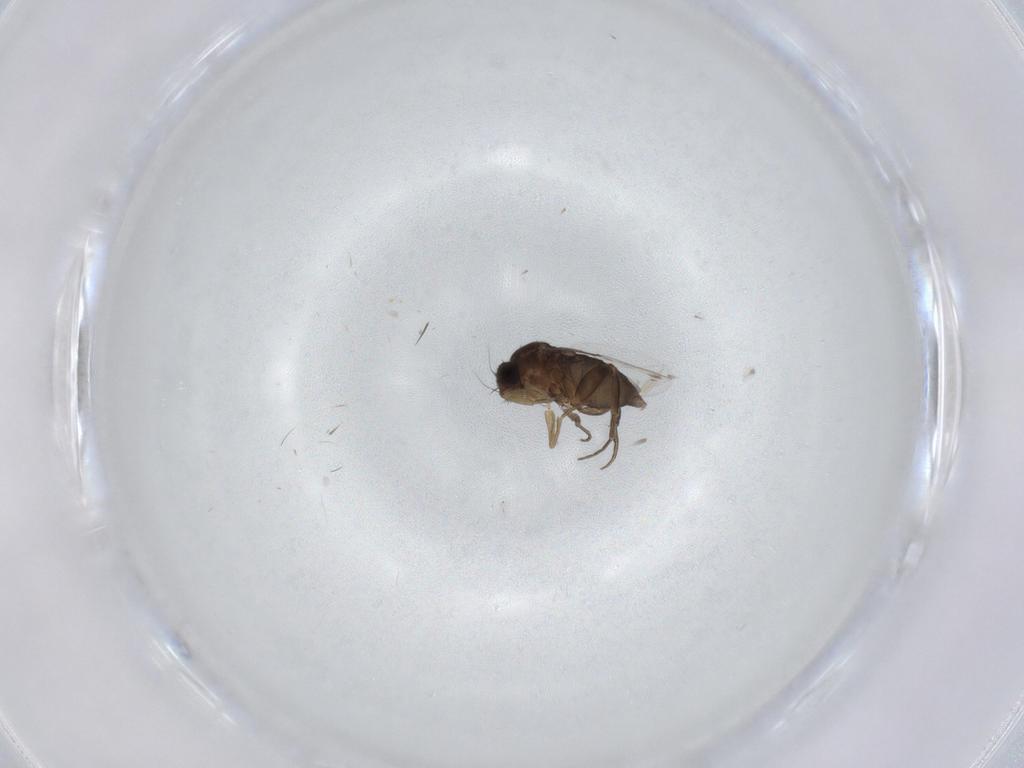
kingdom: Animalia
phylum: Arthropoda
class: Insecta
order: Diptera
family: Phoridae
